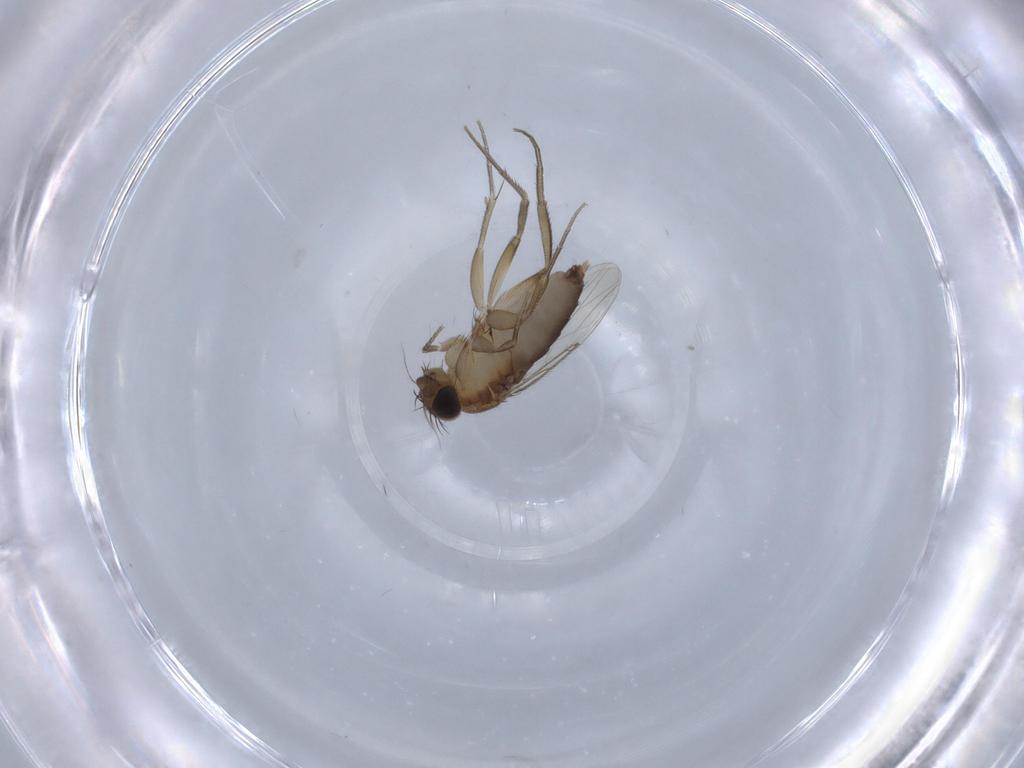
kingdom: Animalia
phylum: Arthropoda
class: Insecta
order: Diptera
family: Phoridae
